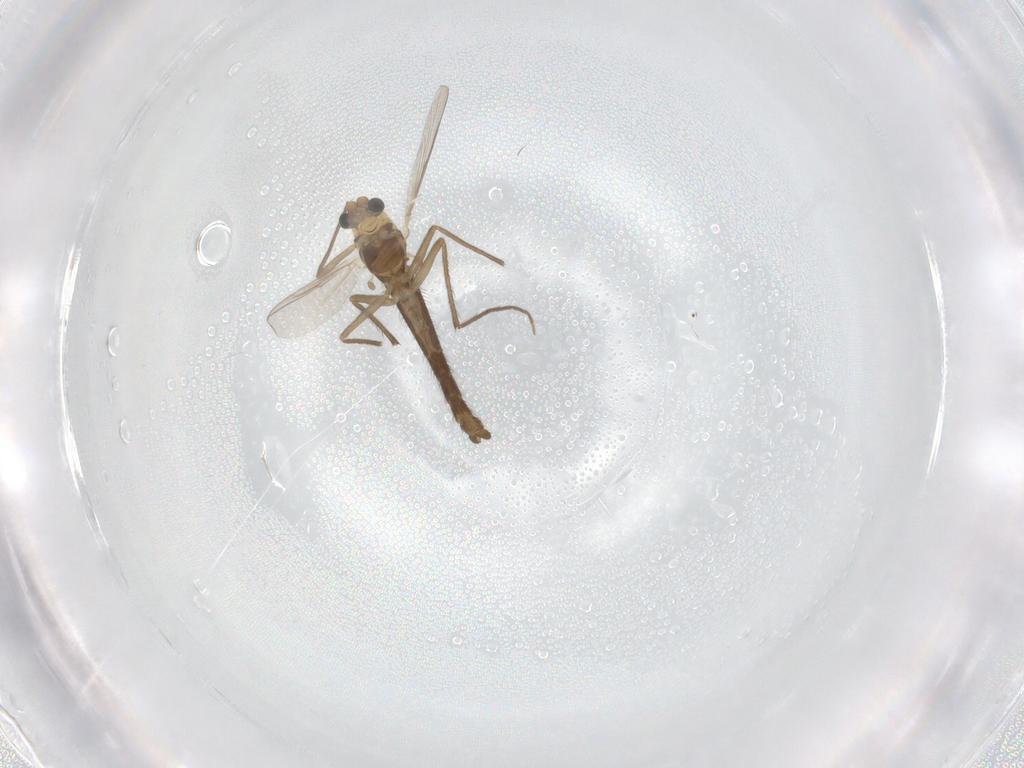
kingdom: Animalia
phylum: Arthropoda
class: Insecta
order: Diptera
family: Chironomidae
